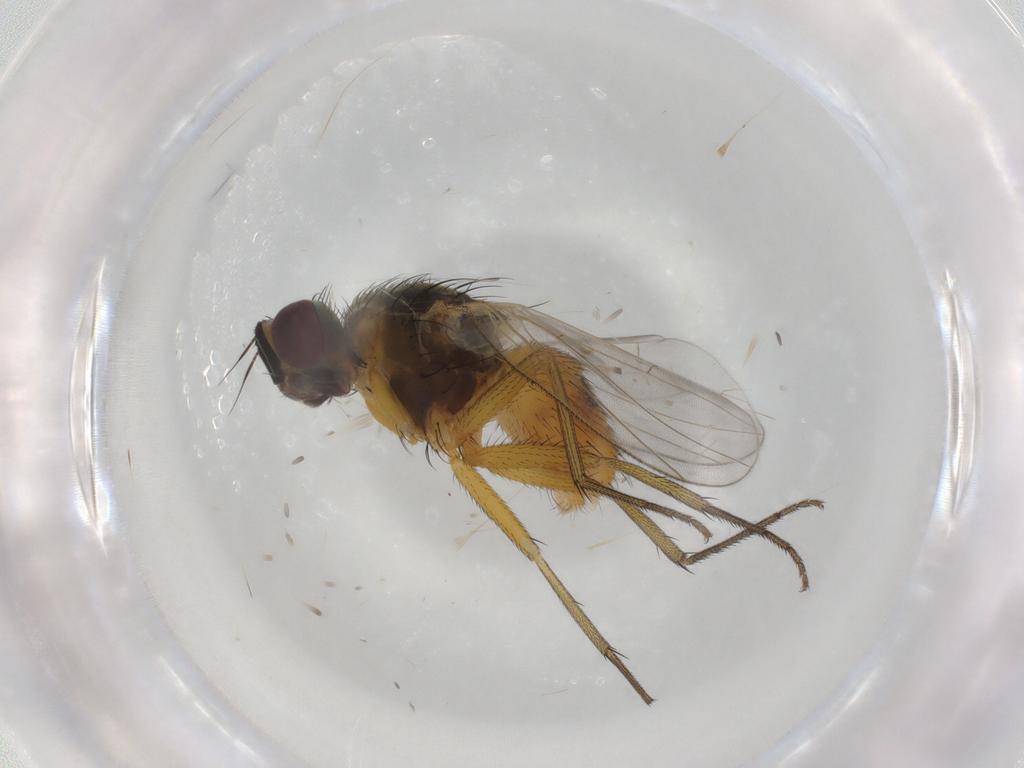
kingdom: Animalia
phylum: Arthropoda
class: Insecta
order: Diptera
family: Muscidae
